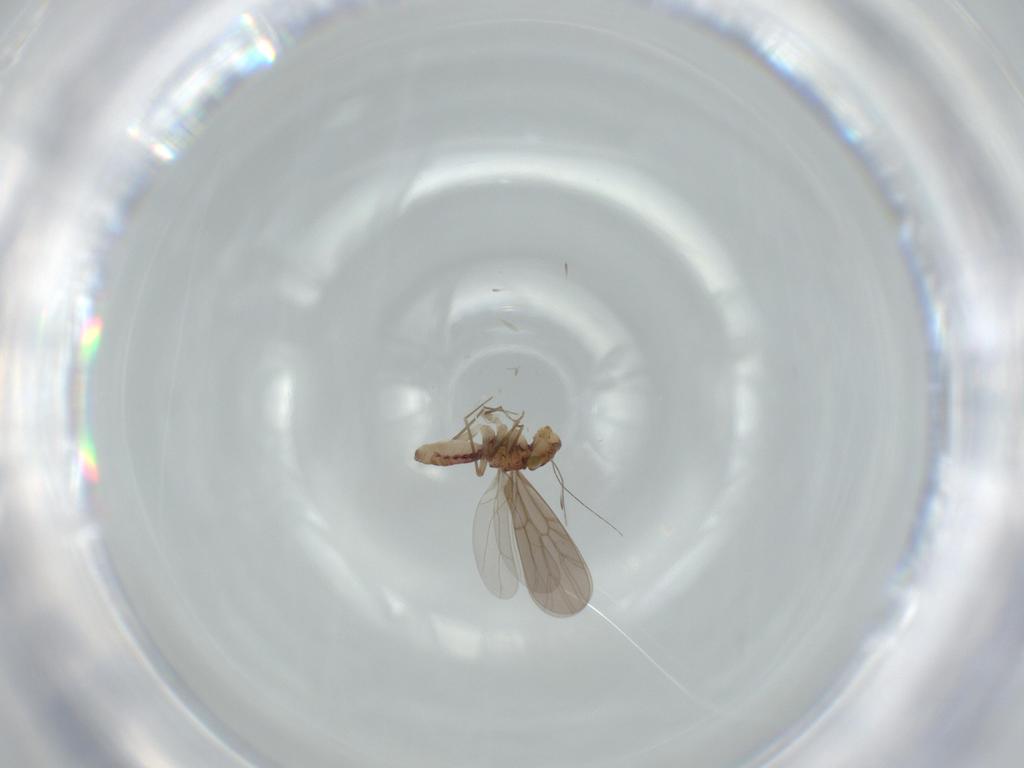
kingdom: Animalia
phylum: Arthropoda
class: Insecta
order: Psocodea
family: Lepidopsocidae
